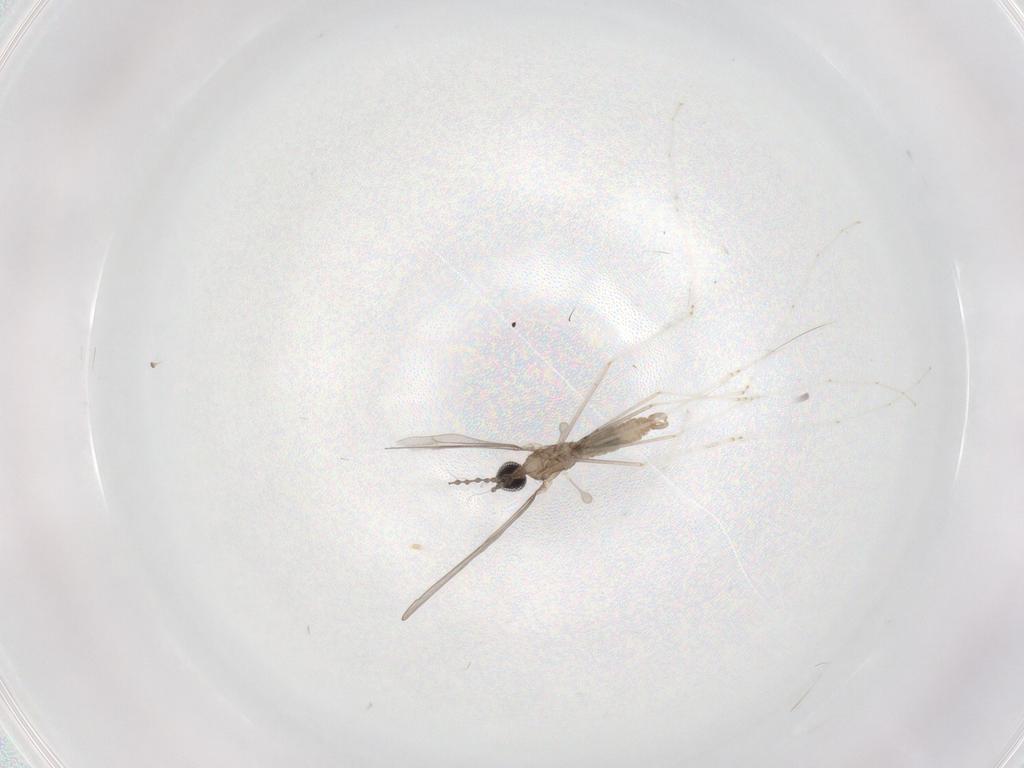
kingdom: Animalia
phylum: Arthropoda
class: Insecta
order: Diptera
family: Cecidomyiidae
